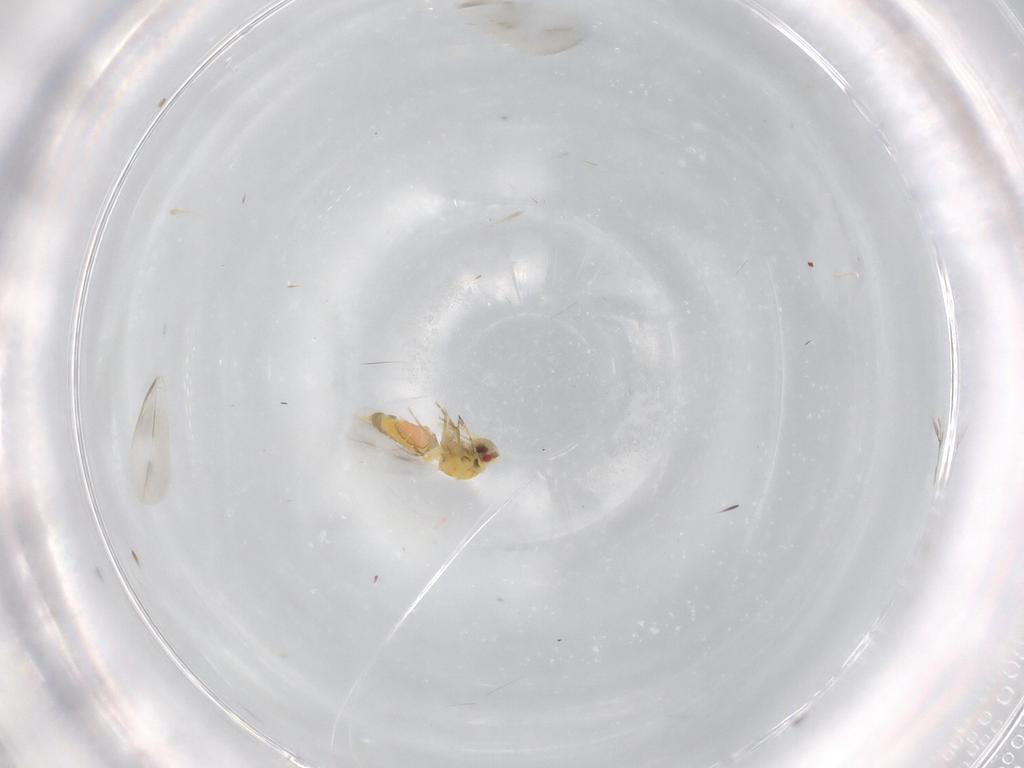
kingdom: Animalia
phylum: Arthropoda
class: Insecta
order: Hemiptera
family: Aleyrodidae
